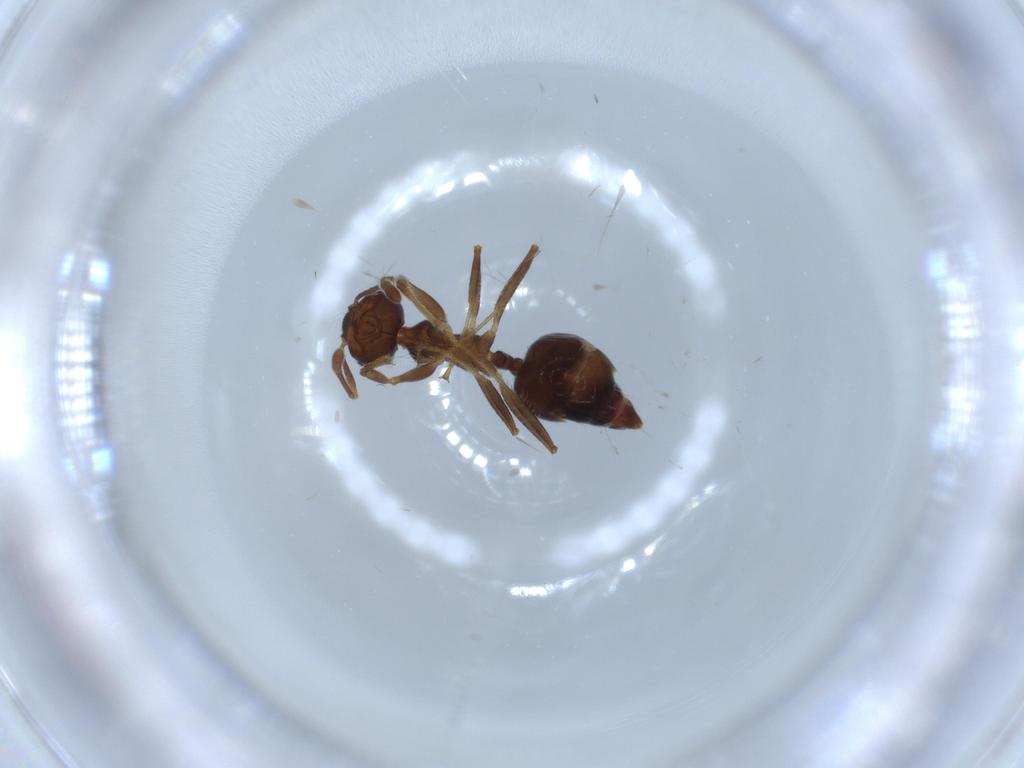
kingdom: Animalia
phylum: Arthropoda
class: Insecta
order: Hymenoptera
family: Formicidae
